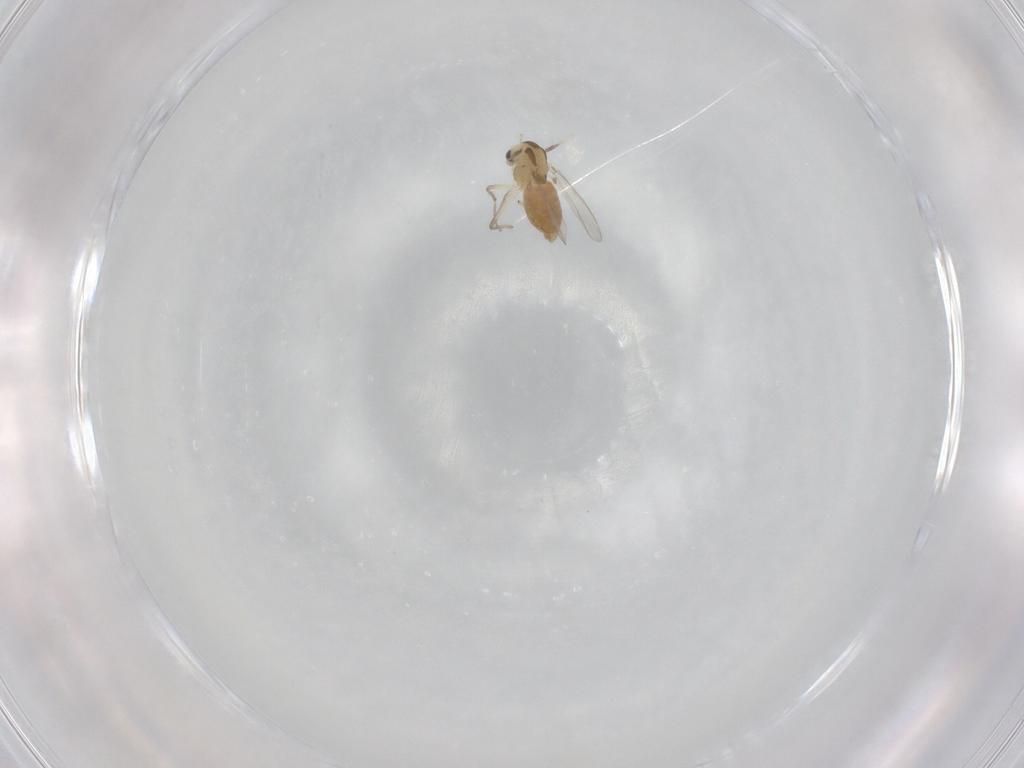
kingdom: Animalia
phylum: Arthropoda
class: Insecta
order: Diptera
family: Chironomidae
